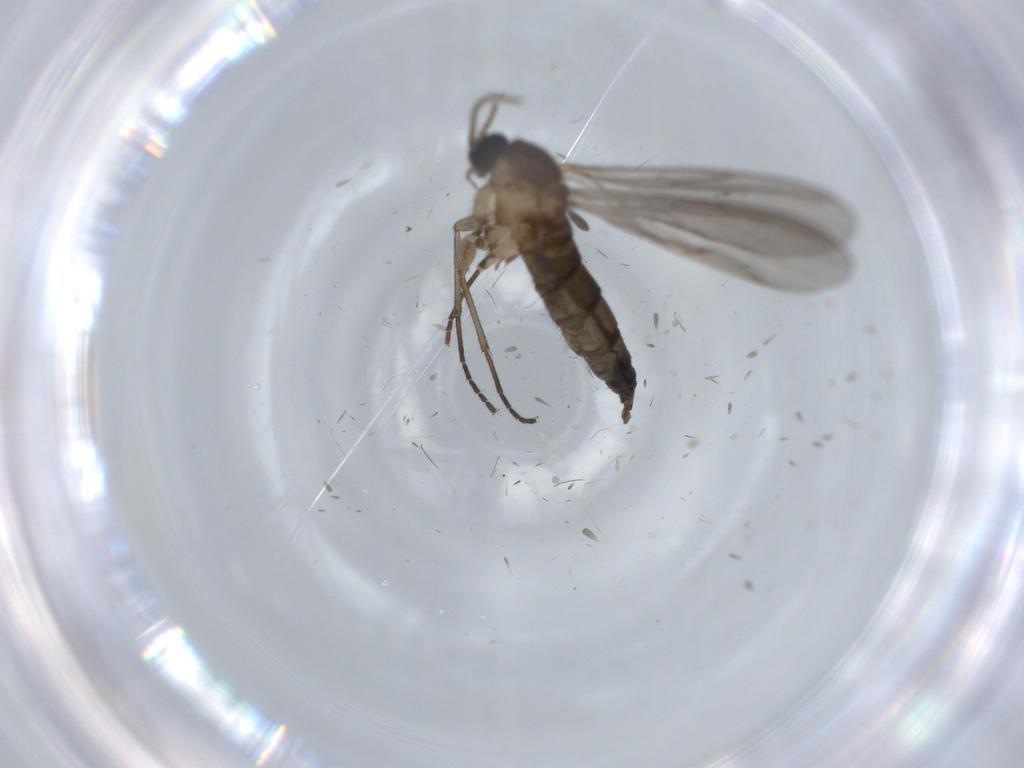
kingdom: Animalia
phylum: Arthropoda
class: Insecta
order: Diptera
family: Sciaridae
